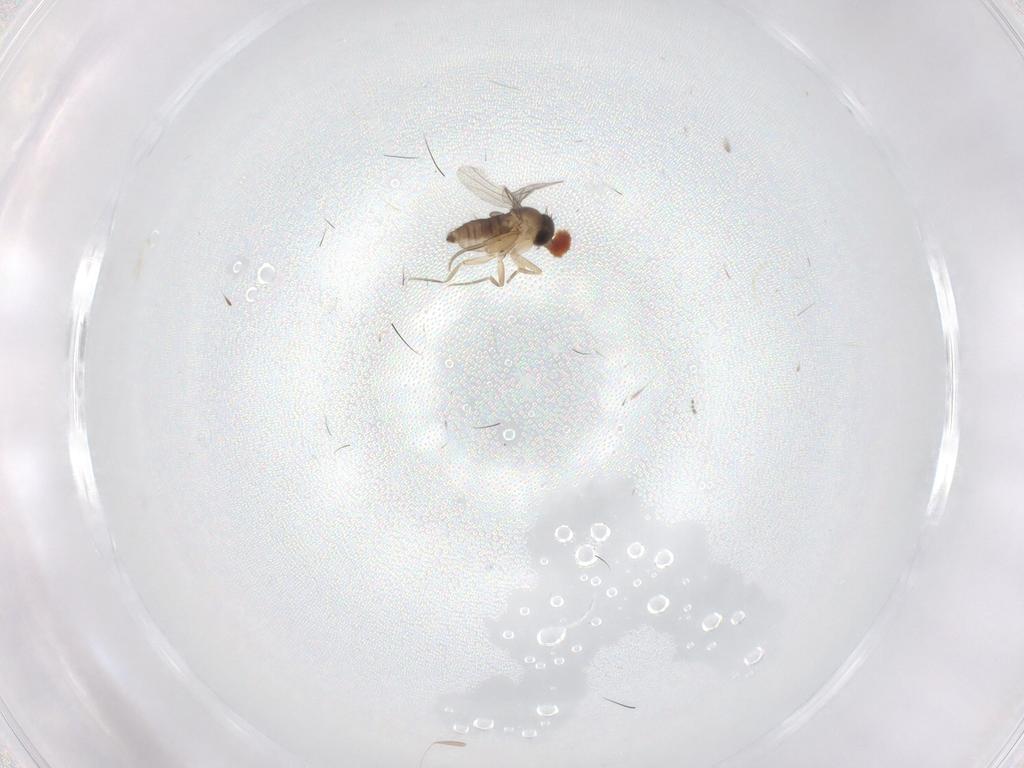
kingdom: Animalia
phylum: Arthropoda
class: Insecta
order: Diptera
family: Phoridae
